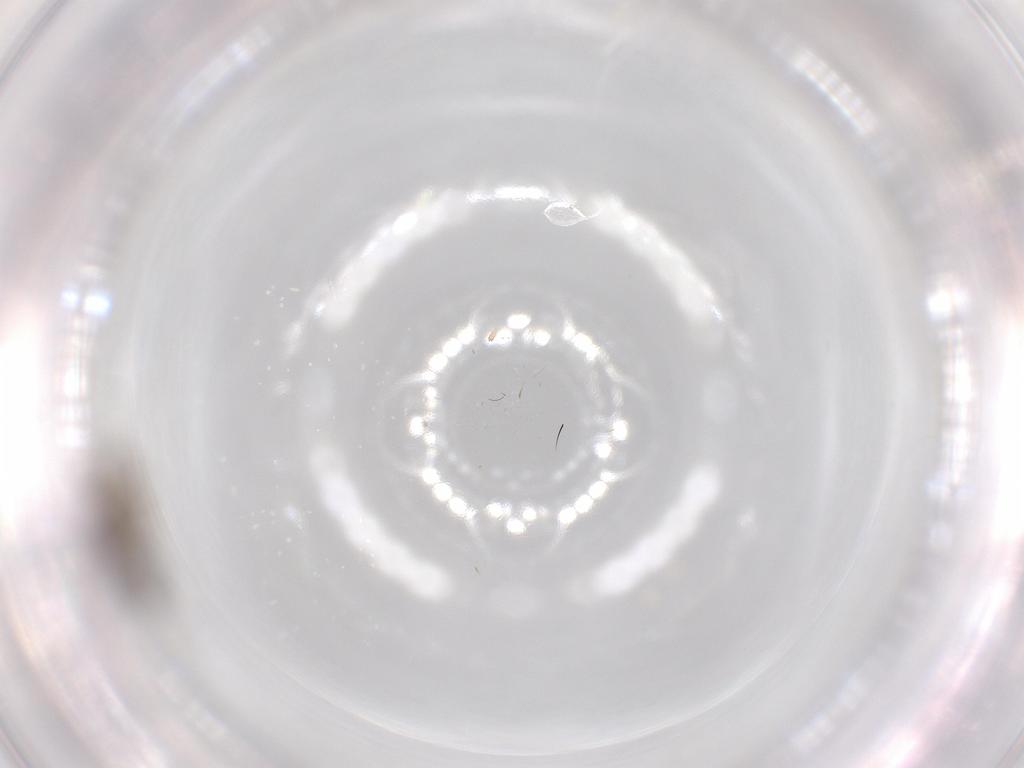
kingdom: Animalia
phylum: Arthropoda
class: Insecta
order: Diptera
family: Cecidomyiidae
